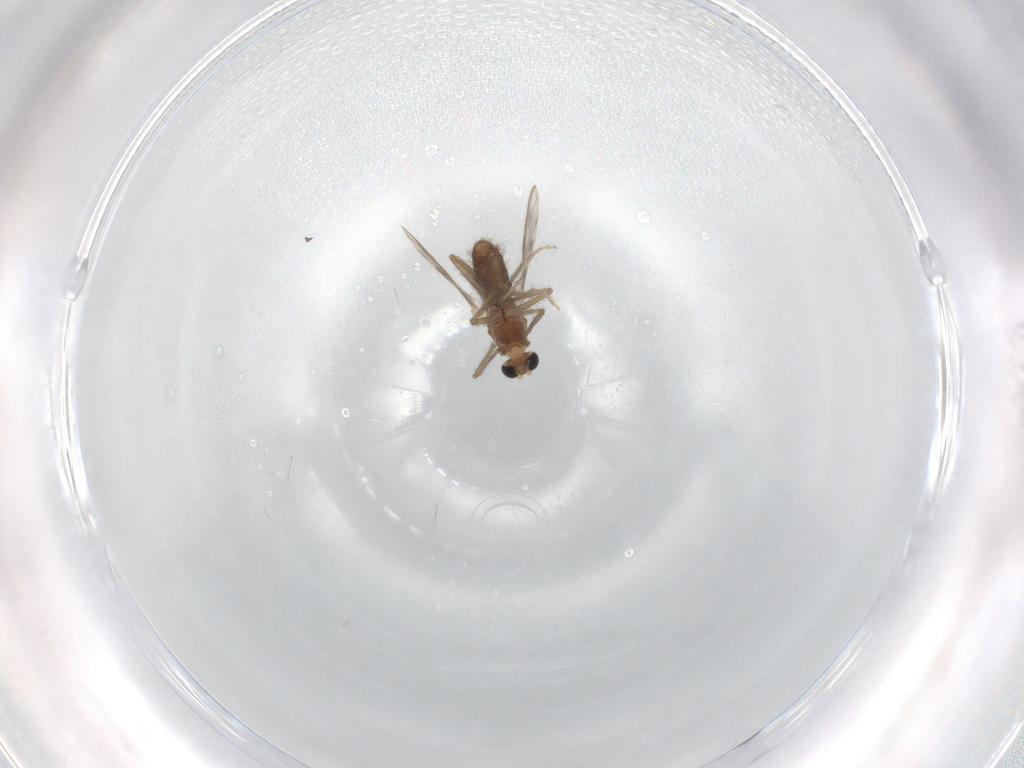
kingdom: Animalia
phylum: Arthropoda
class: Insecta
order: Diptera
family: Chironomidae
